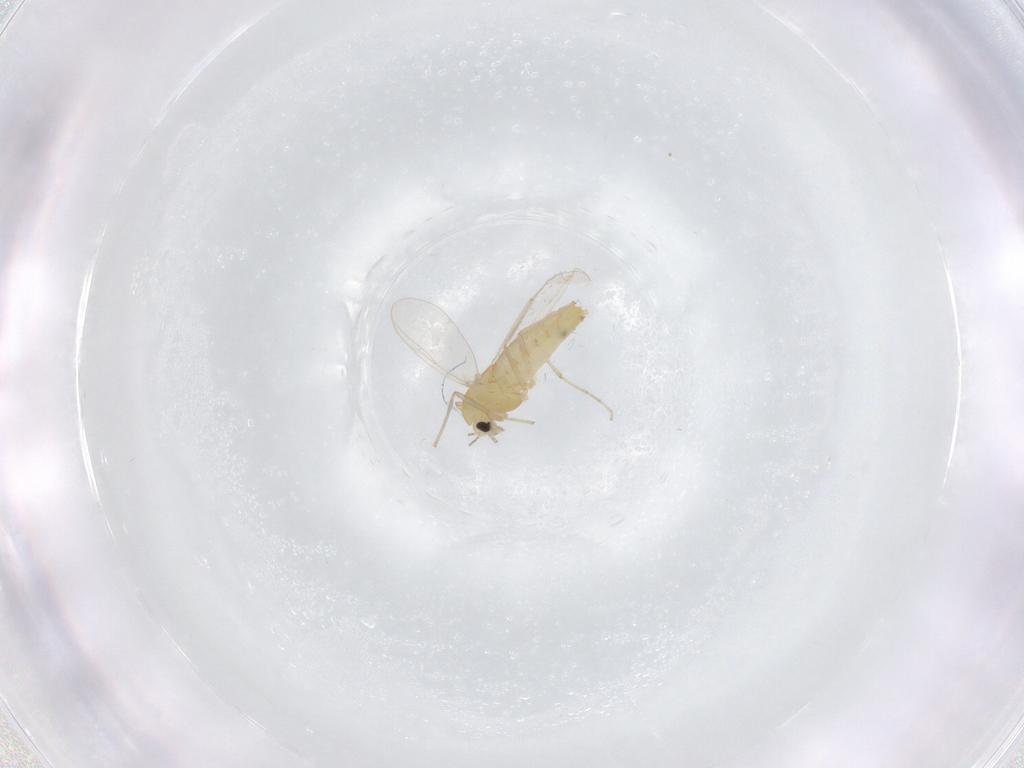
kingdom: Animalia
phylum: Arthropoda
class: Insecta
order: Diptera
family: Chironomidae
